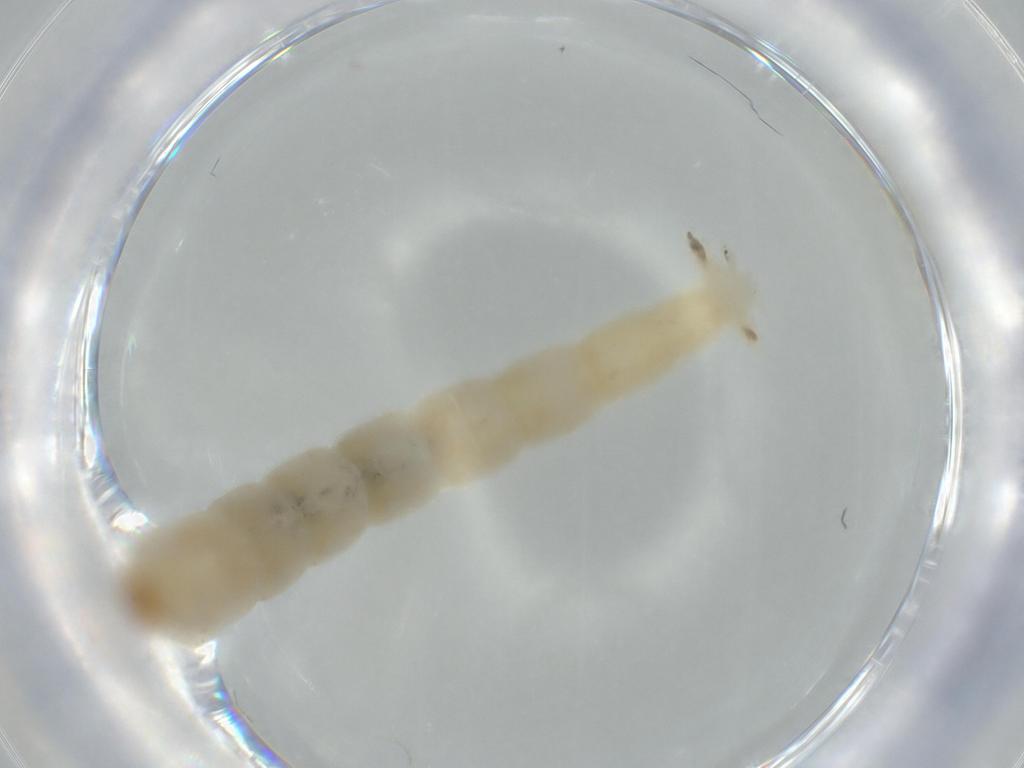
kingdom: Animalia
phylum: Arthropoda
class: Insecta
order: Diptera
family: Chironomidae
